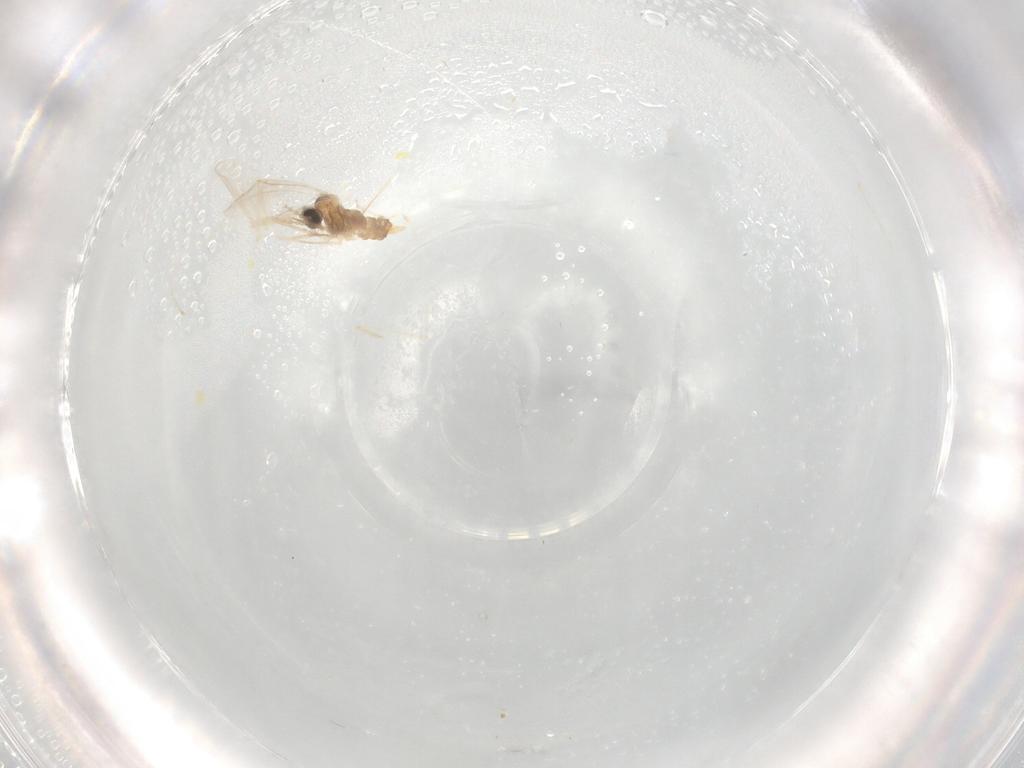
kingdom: Animalia
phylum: Arthropoda
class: Insecta
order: Diptera
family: Cecidomyiidae
